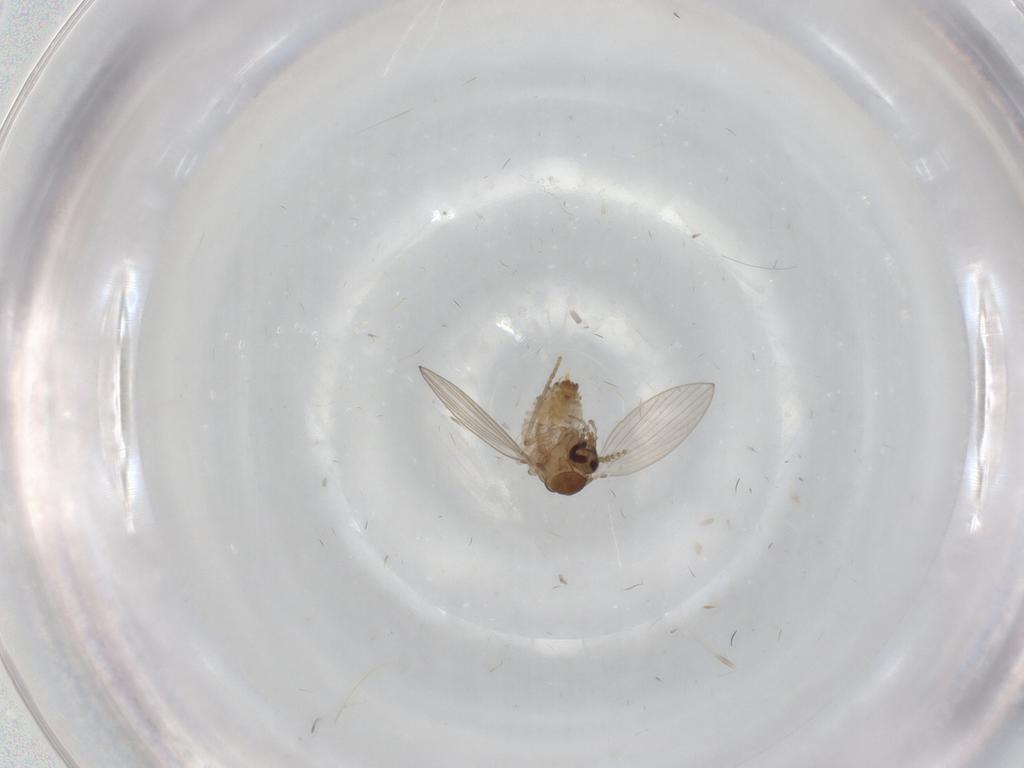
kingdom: Animalia
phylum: Arthropoda
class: Insecta
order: Diptera
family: Psychodidae
